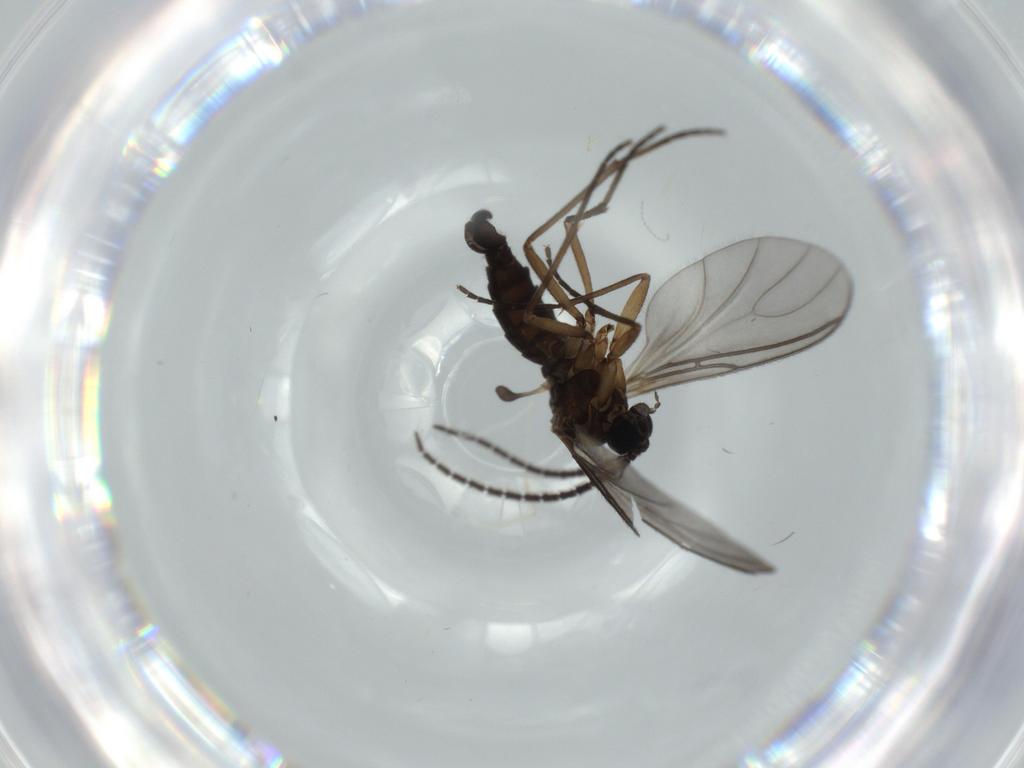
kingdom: Animalia
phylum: Arthropoda
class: Insecta
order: Diptera
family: Sciaridae
